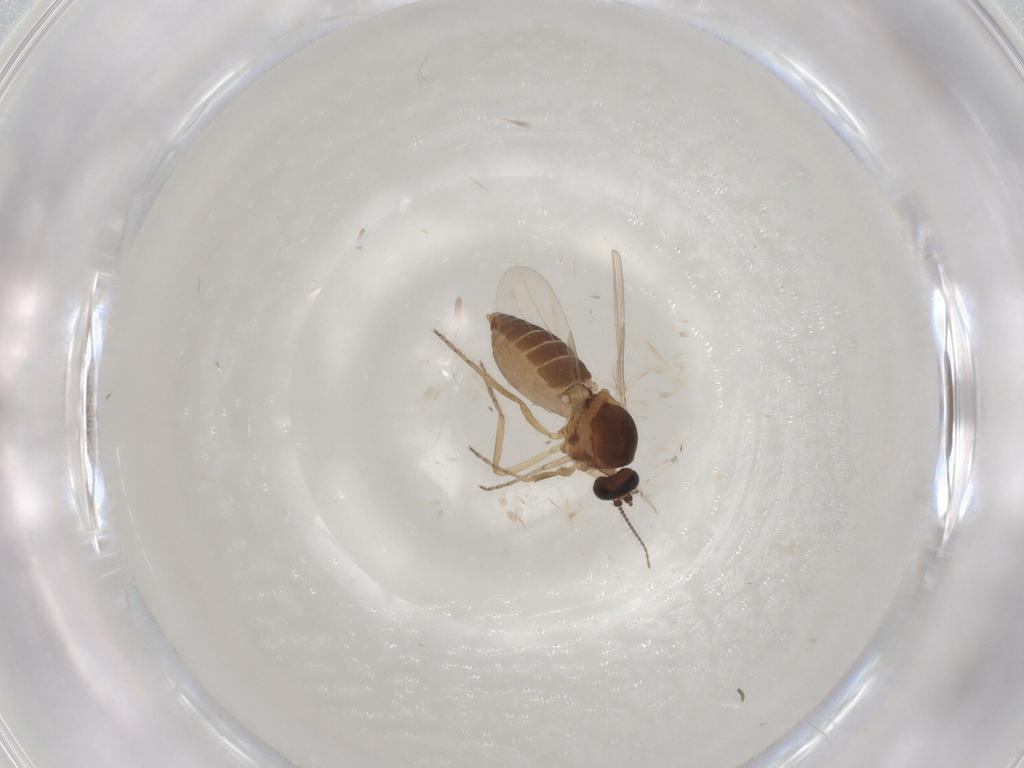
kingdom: Animalia
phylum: Arthropoda
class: Insecta
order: Diptera
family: Ceratopogonidae
